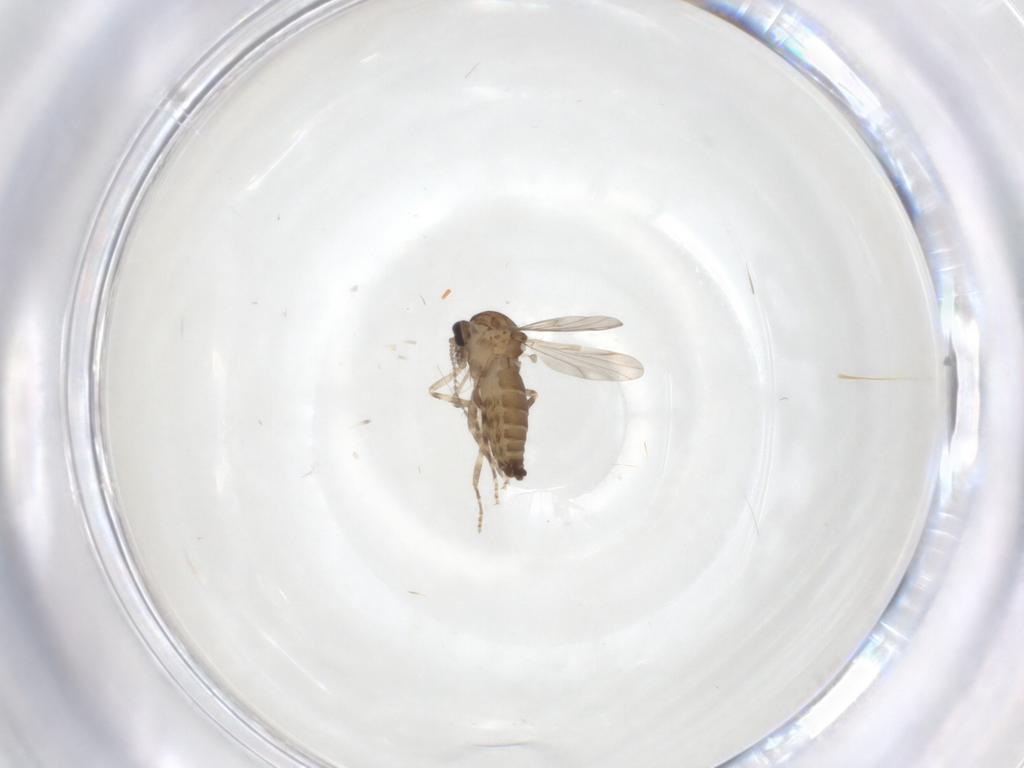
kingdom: Animalia
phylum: Arthropoda
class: Insecta
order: Diptera
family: Ceratopogonidae
